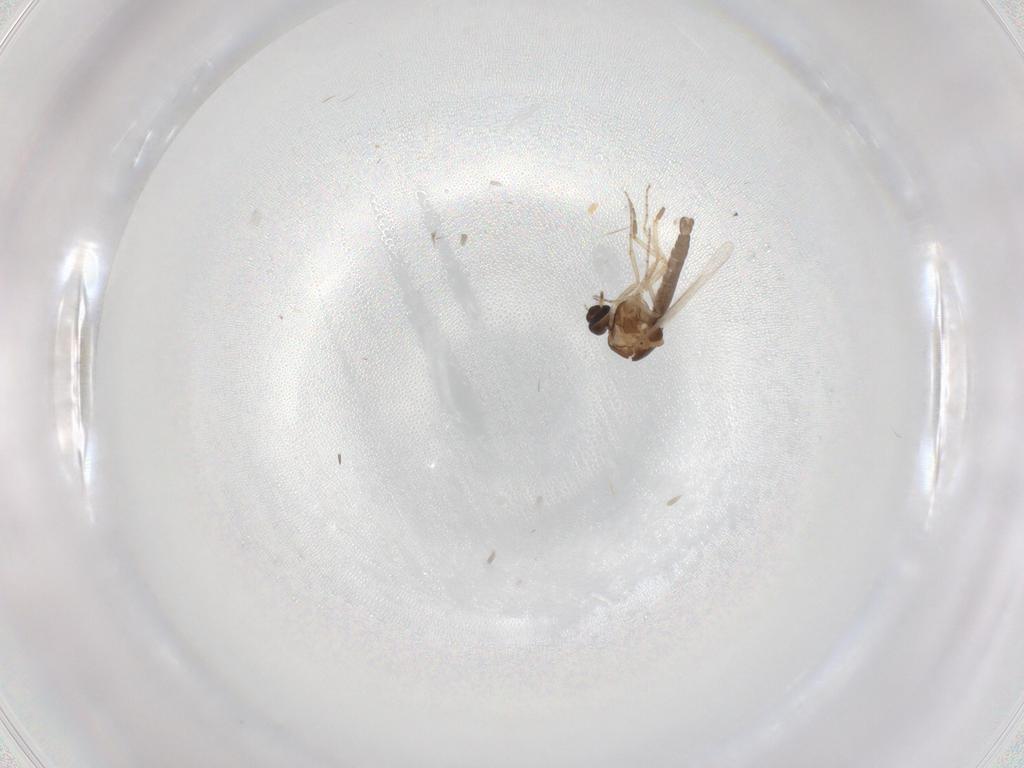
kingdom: Animalia
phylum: Arthropoda
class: Insecta
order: Diptera
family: Ceratopogonidae
